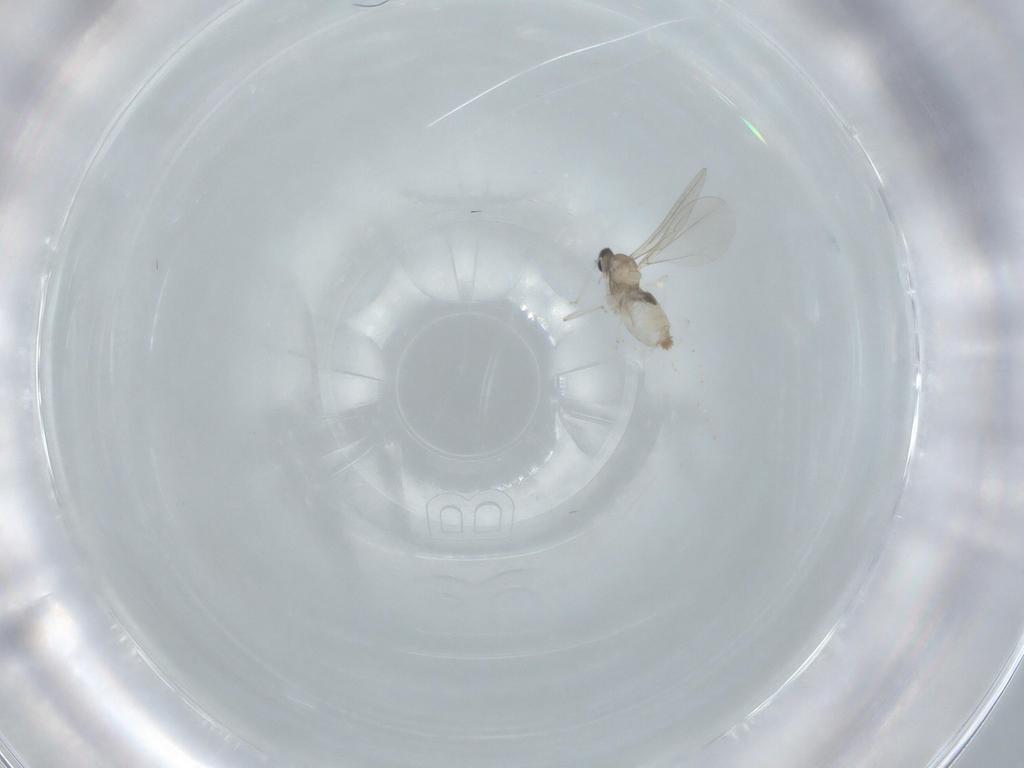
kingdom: Animalia
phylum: Arthropoda
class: Insecta
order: Diptera
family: Cecidomyiidae
